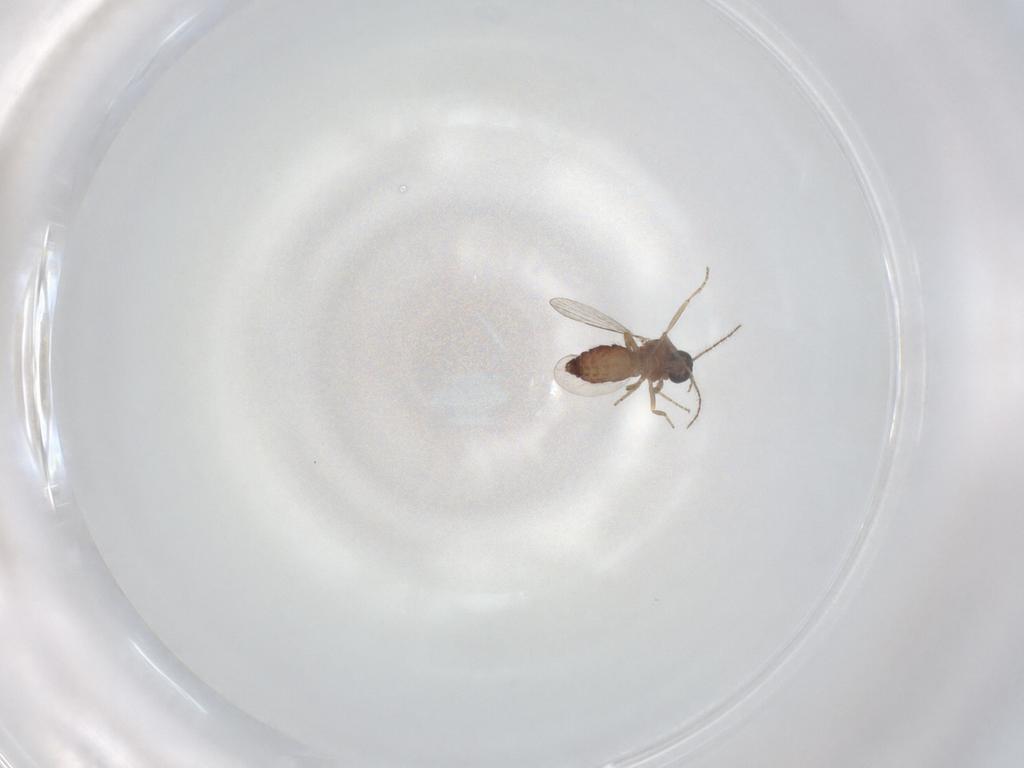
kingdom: Animalia
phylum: Arthropoda
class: Insecta
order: Diptera
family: Ceratopogonidae
